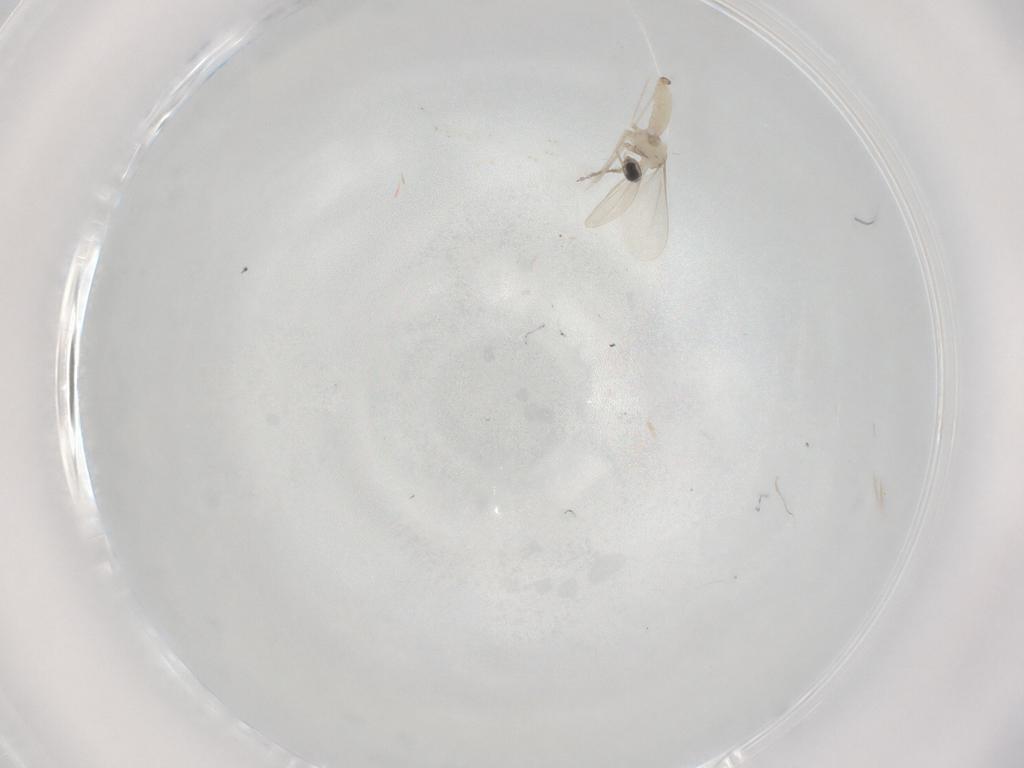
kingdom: Animalia
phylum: Arthropoda
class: Insecta
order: Diptera
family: Cecidomyiidae
